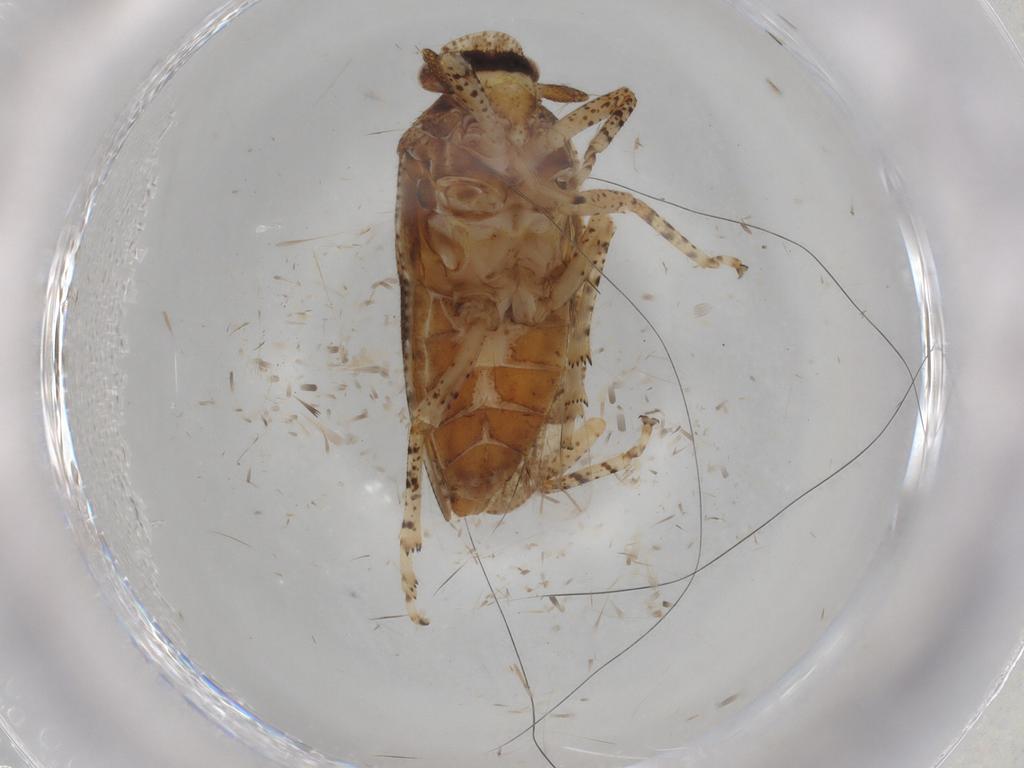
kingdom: Animalia
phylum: Arthropoda
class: Insecta
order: Hemiptera
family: Tettigometridae
